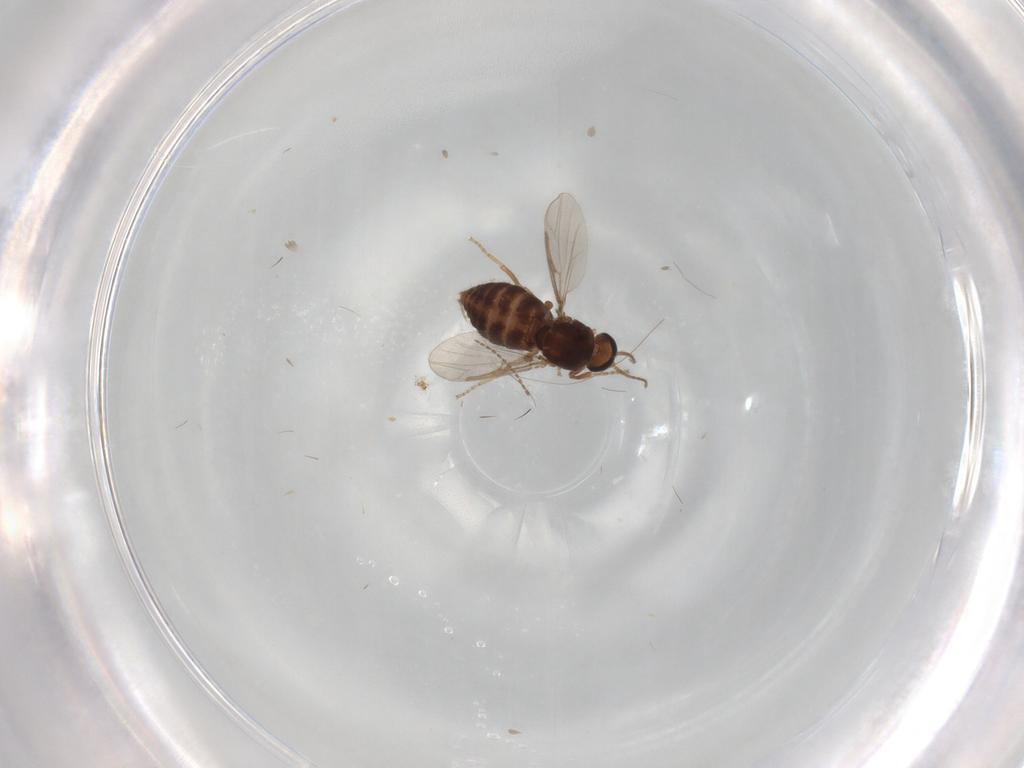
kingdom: Animalia
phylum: Arthropoda
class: Insecta
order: Diptera
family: Ceratopogonidae
